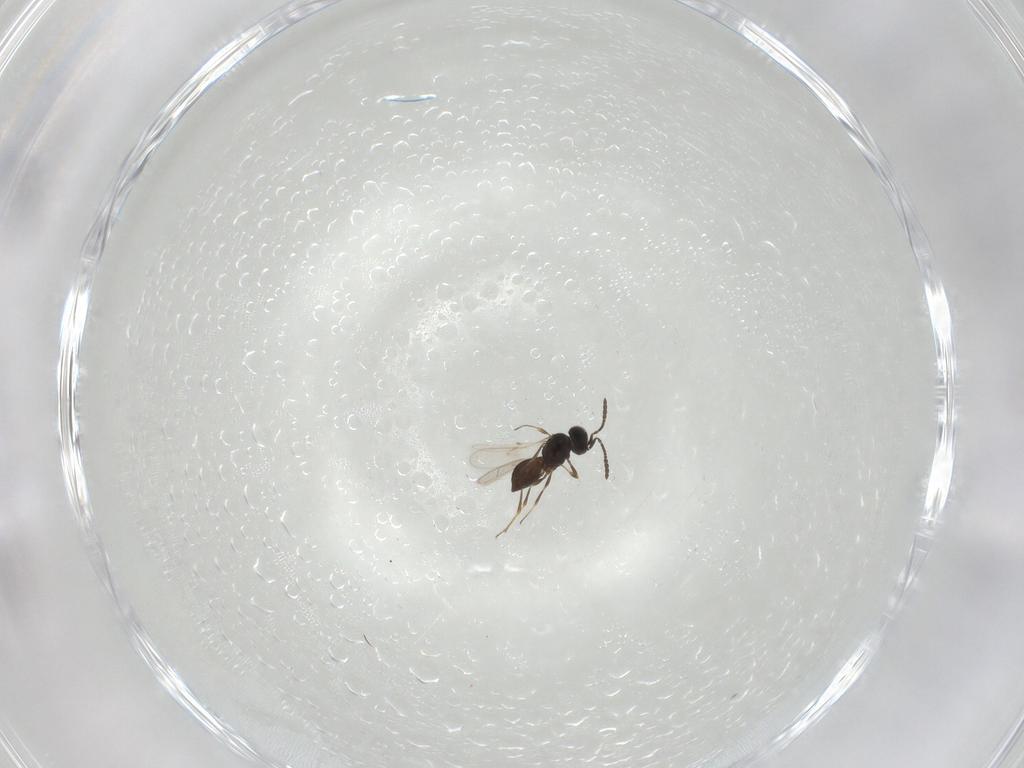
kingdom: Animalia
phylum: Arthropoda
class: Insecta
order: Hymenoptera
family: Scelionidae
